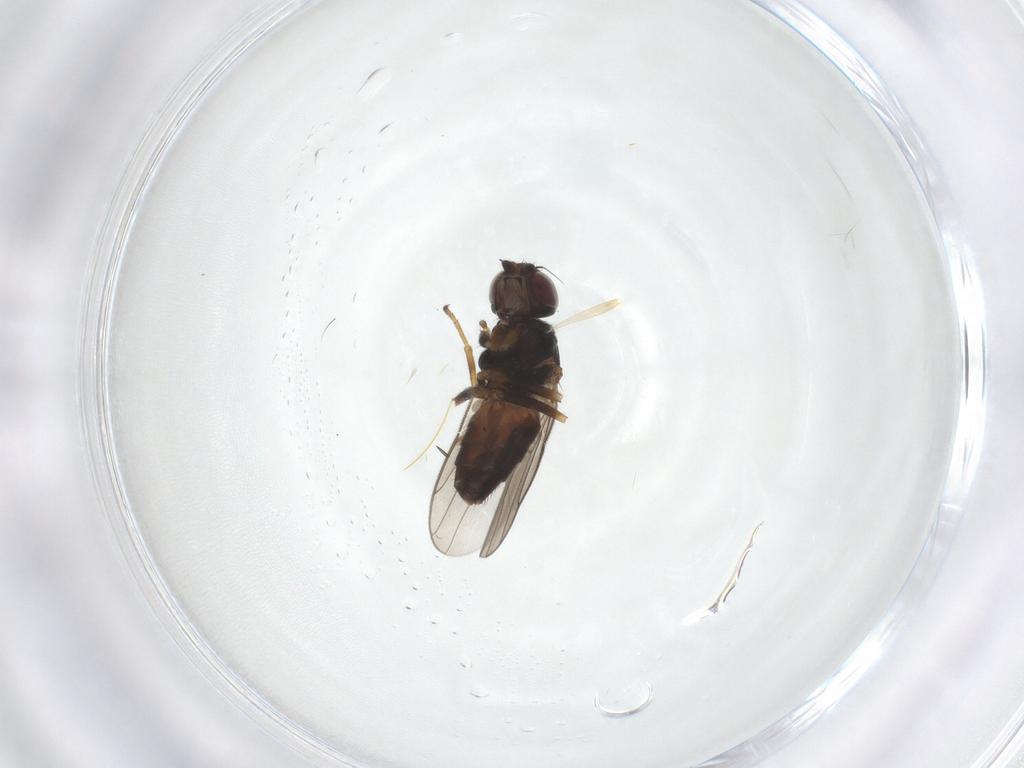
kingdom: Animalia
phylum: Arthropoda
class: Insecta
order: Diptera
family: Chloropidae
